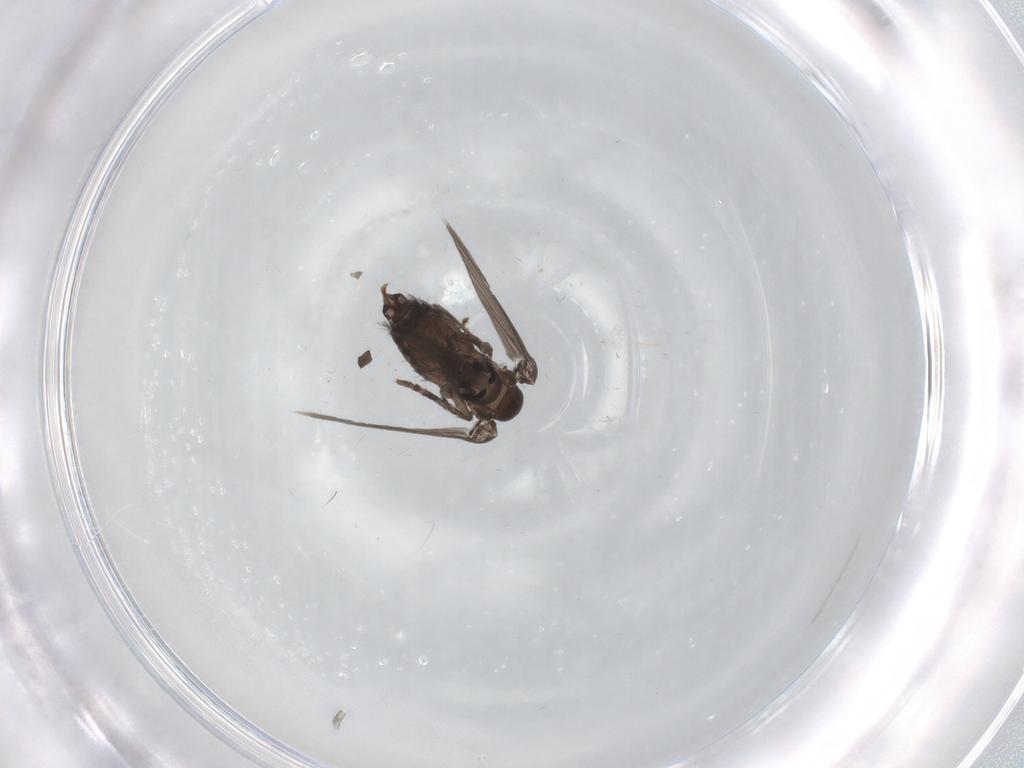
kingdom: Animalia
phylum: Arthropoda
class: Insecta
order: Diptera
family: Psychodidae
